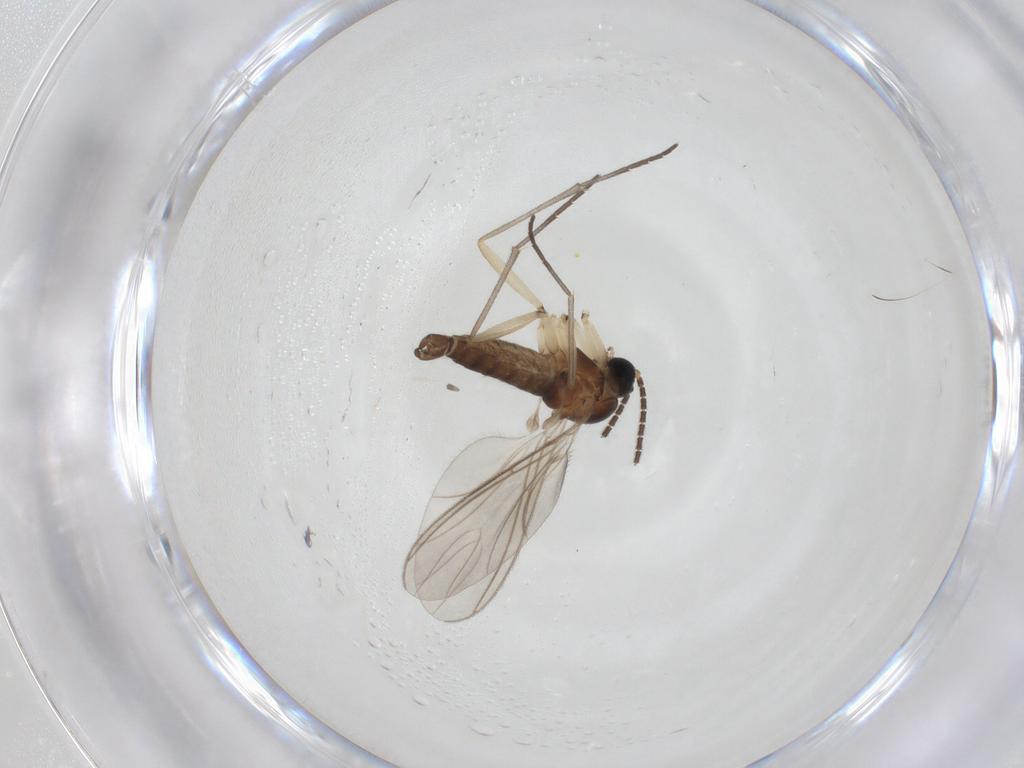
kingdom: Animalia
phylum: Arthropoda
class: Insecta
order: Diptera
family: Sciaridae
